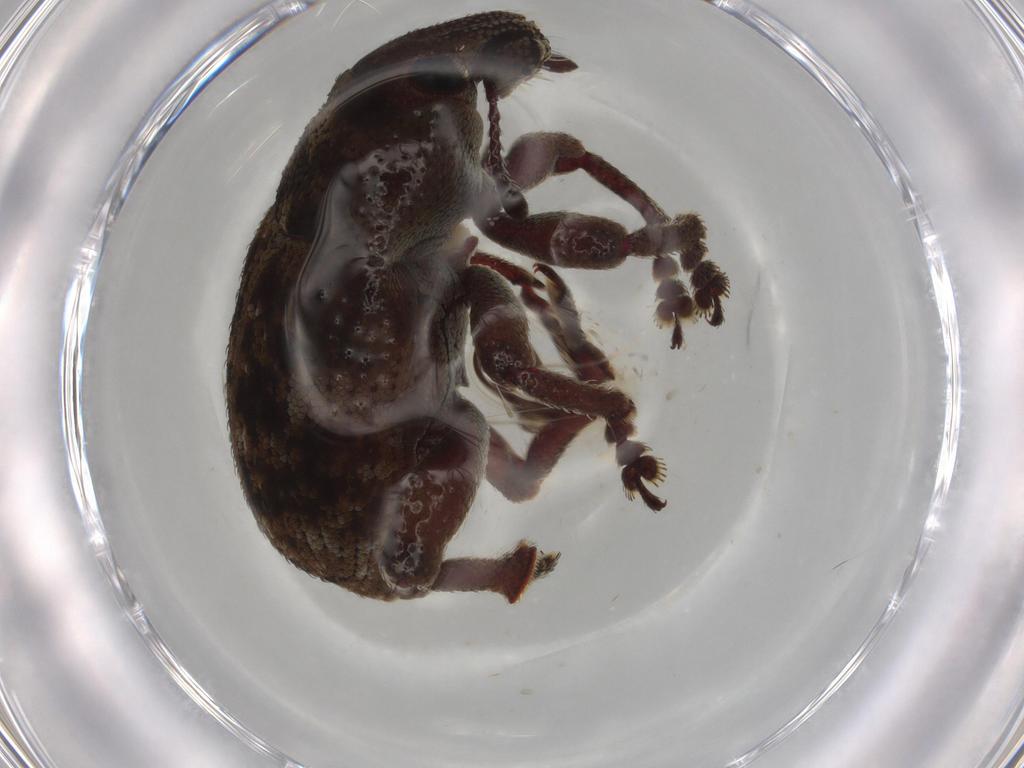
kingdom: Animalia
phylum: Arthropoda
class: Insecta
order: Coleoptera
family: Curculionidae
